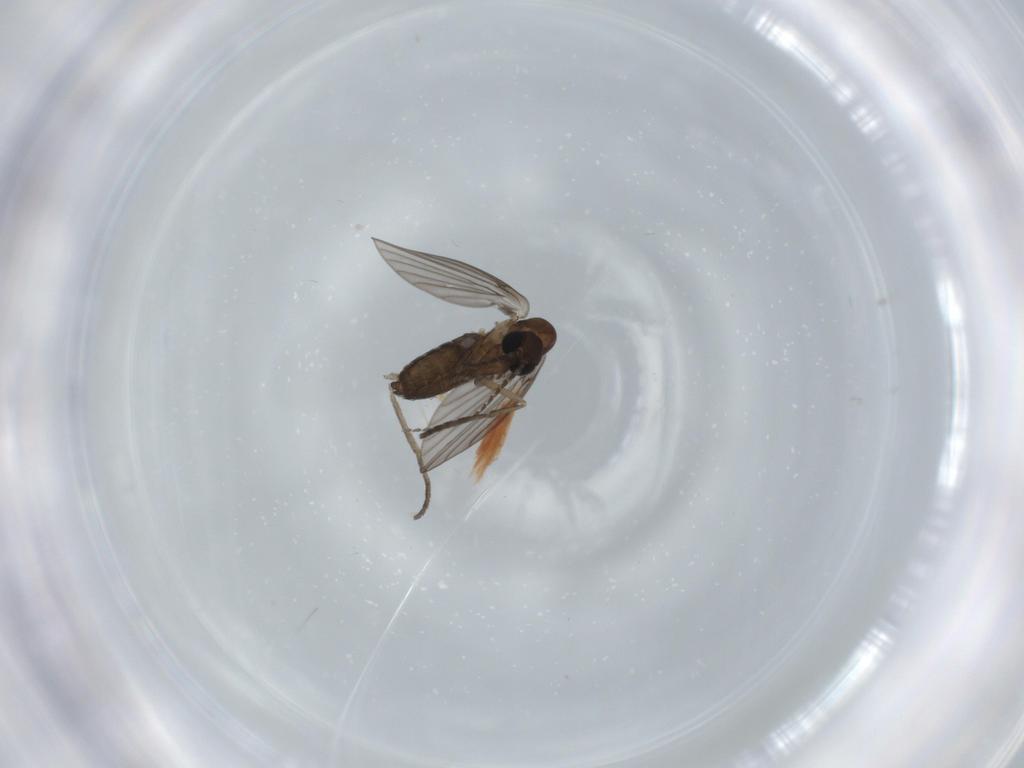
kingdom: Animalia
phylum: Arthropoda
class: Insecta
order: Diptera
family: Psychodidae
